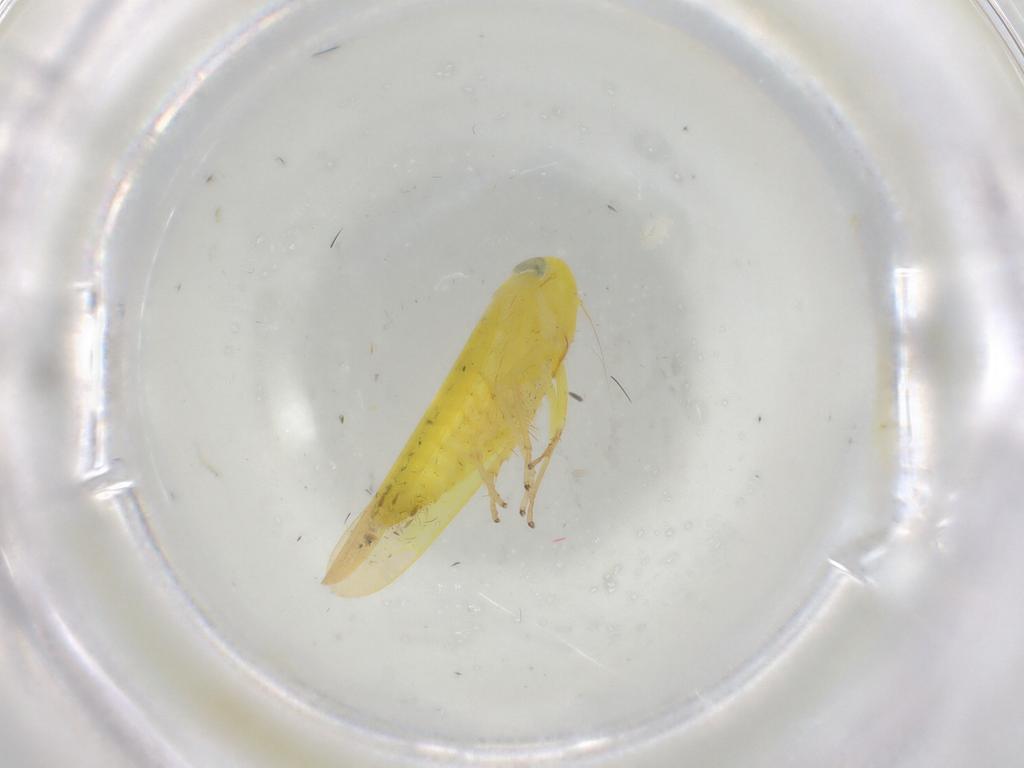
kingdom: Animalia
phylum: Arthropoda
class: Insecta
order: Hemiptera
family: Cicadellidae
